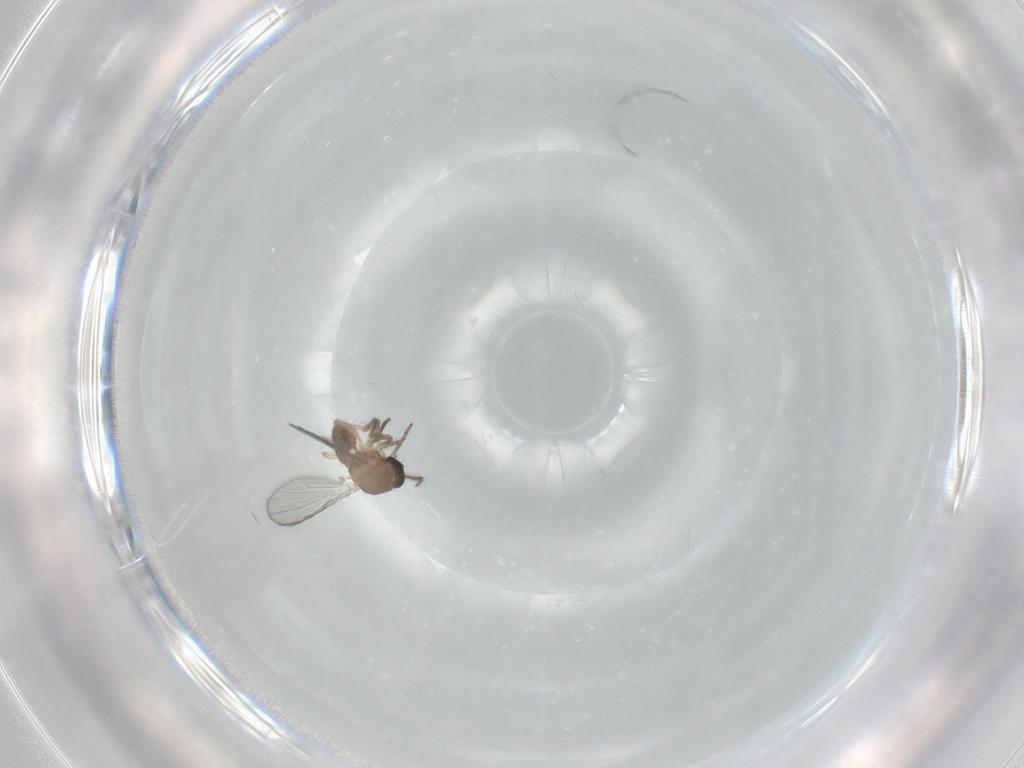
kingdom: Animalia
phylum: Arthropoda
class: Insecta
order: Diptera
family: Ceratopogonidae
